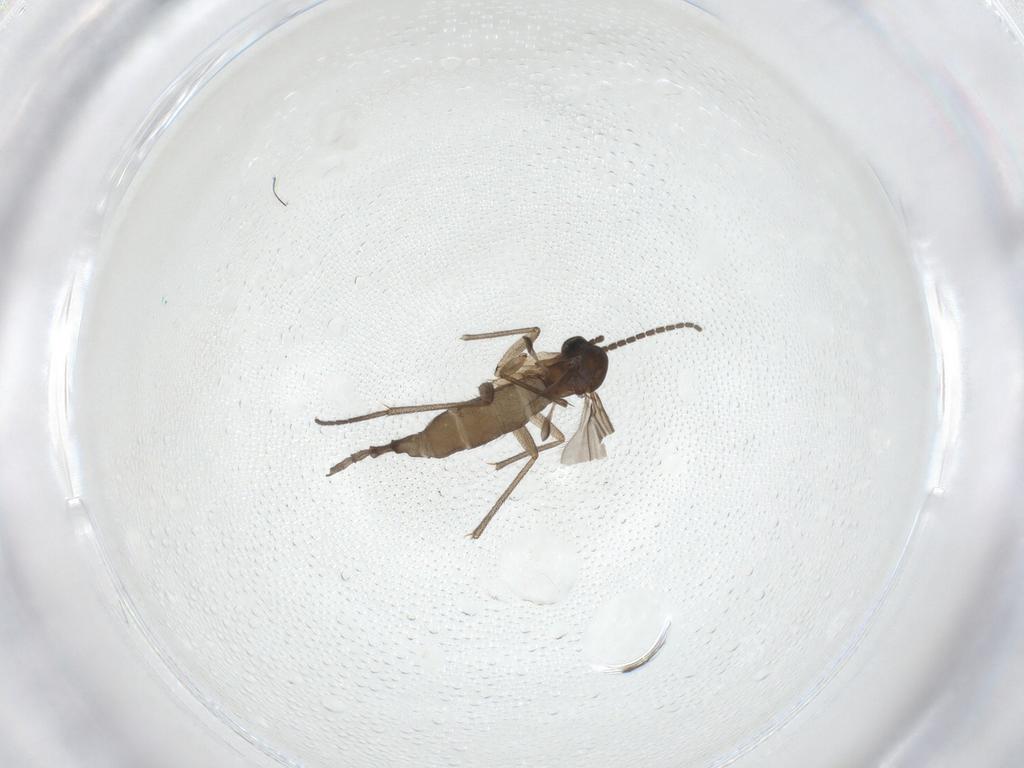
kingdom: Animalia
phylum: Arthropoda
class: Insecta
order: Diptera
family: Sciaridae
